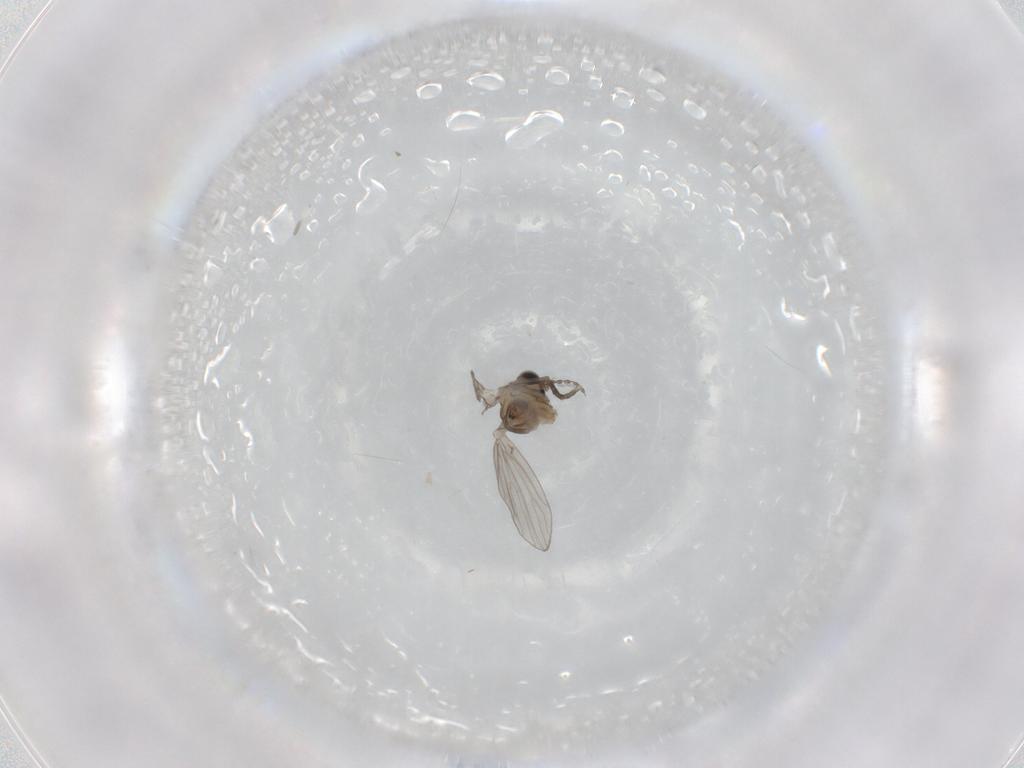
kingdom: Animalia
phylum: Arthropoda
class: Insecta
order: Diptera
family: Psychodidae
